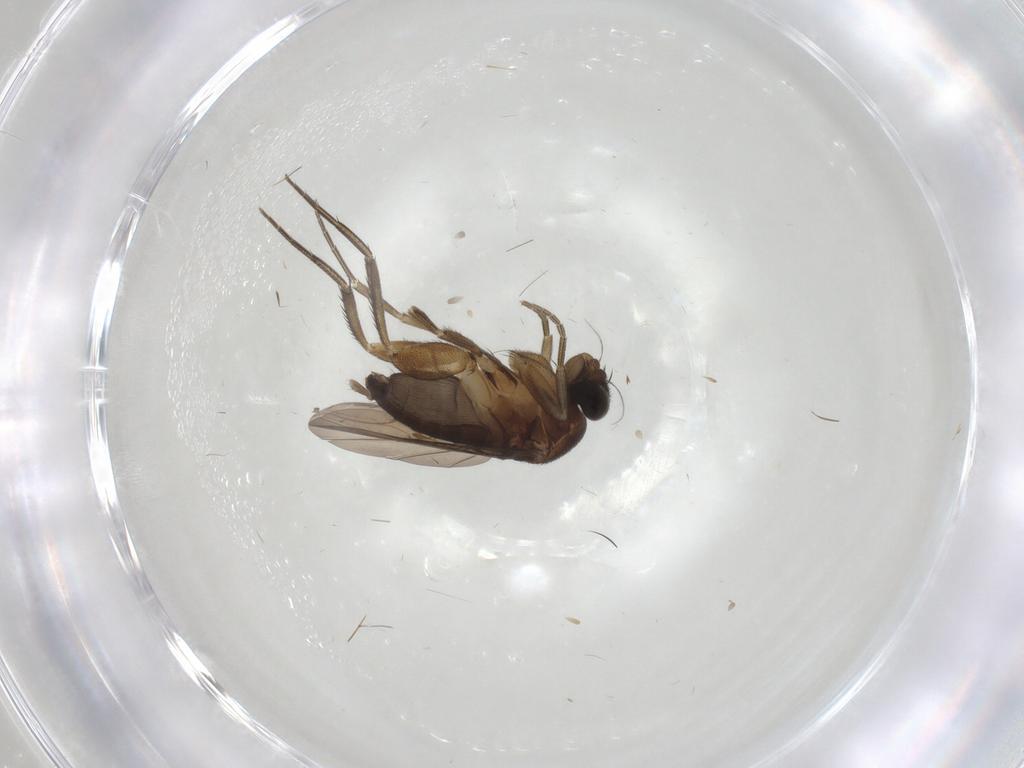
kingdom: Animalia
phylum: Arthropoda
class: Insecta
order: Diptera
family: Phoridae
